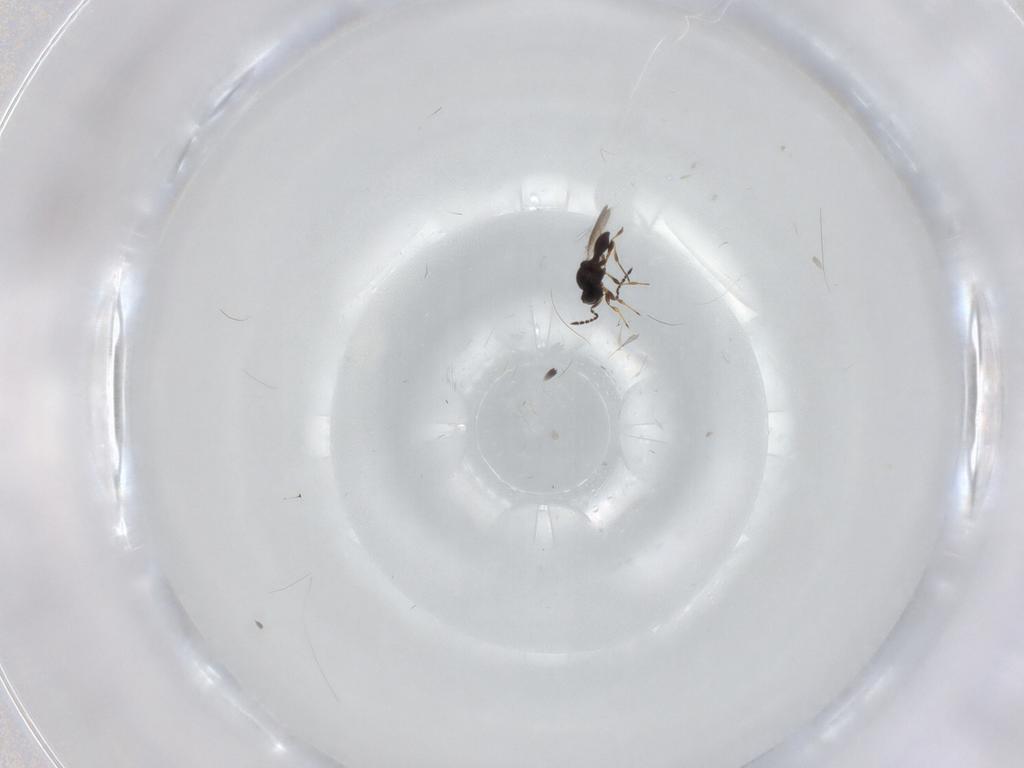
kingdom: Animalia
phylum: Arthropoda
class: Insecta
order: Hymenoptera
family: Platygastridae
